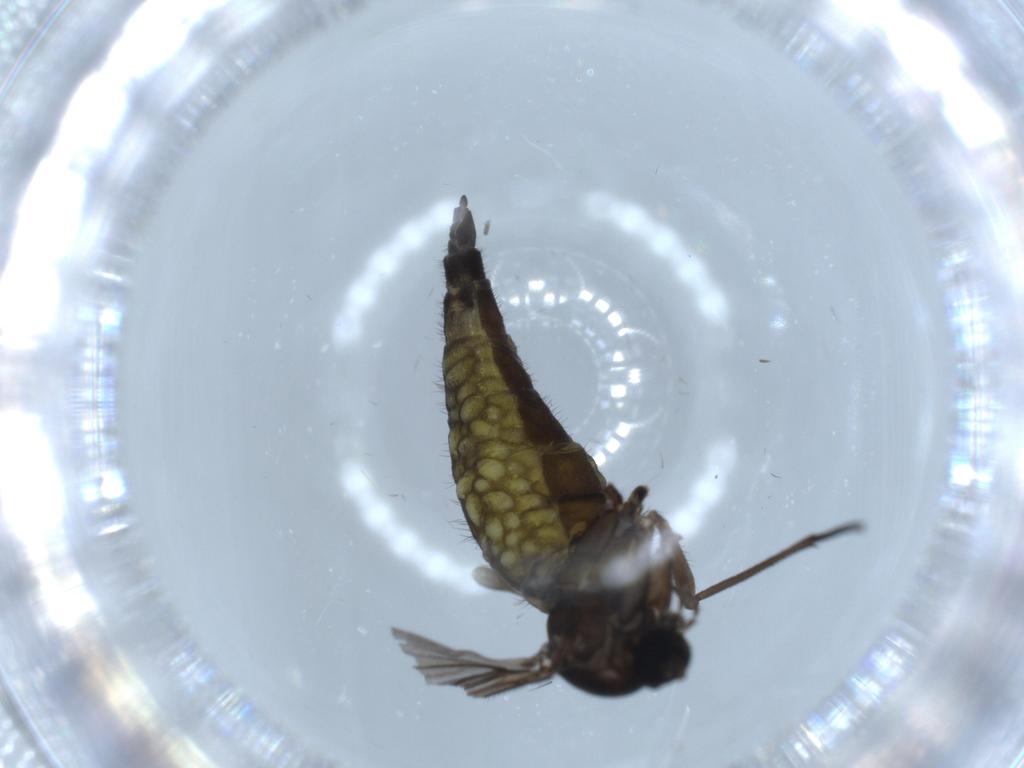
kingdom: Animalia
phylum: Arthropoda
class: Insecta
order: Diptera
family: Sciaridae
